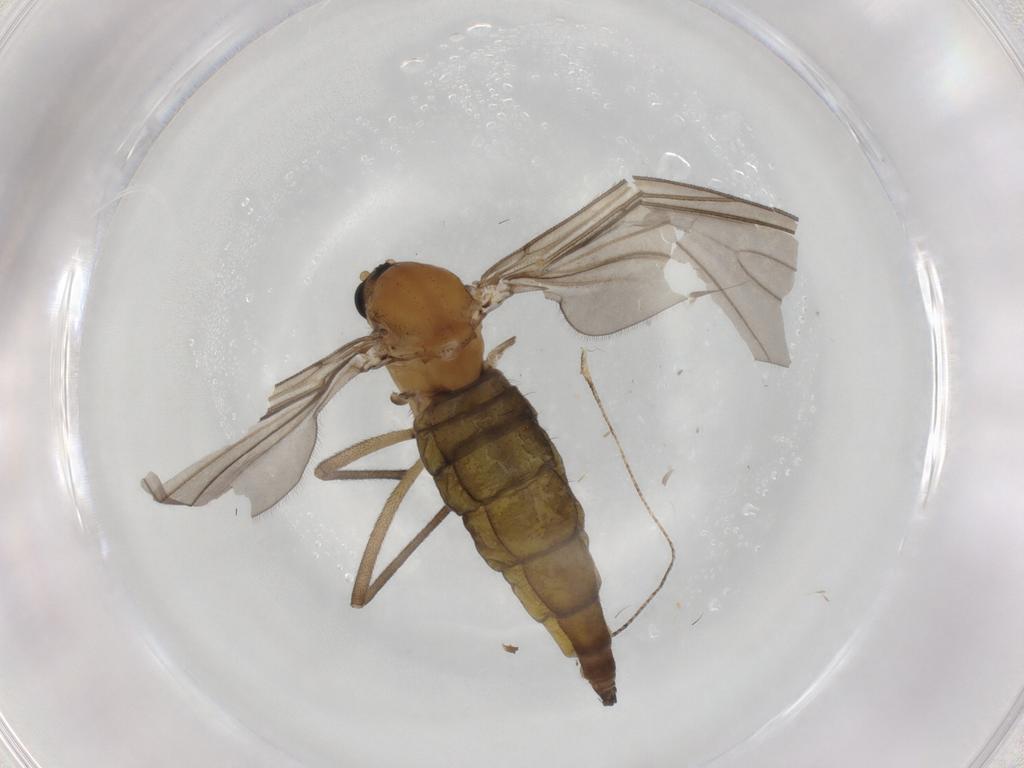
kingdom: Animalia
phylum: Arthropoda
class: Insecta
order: Diptera
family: Sciaridae
